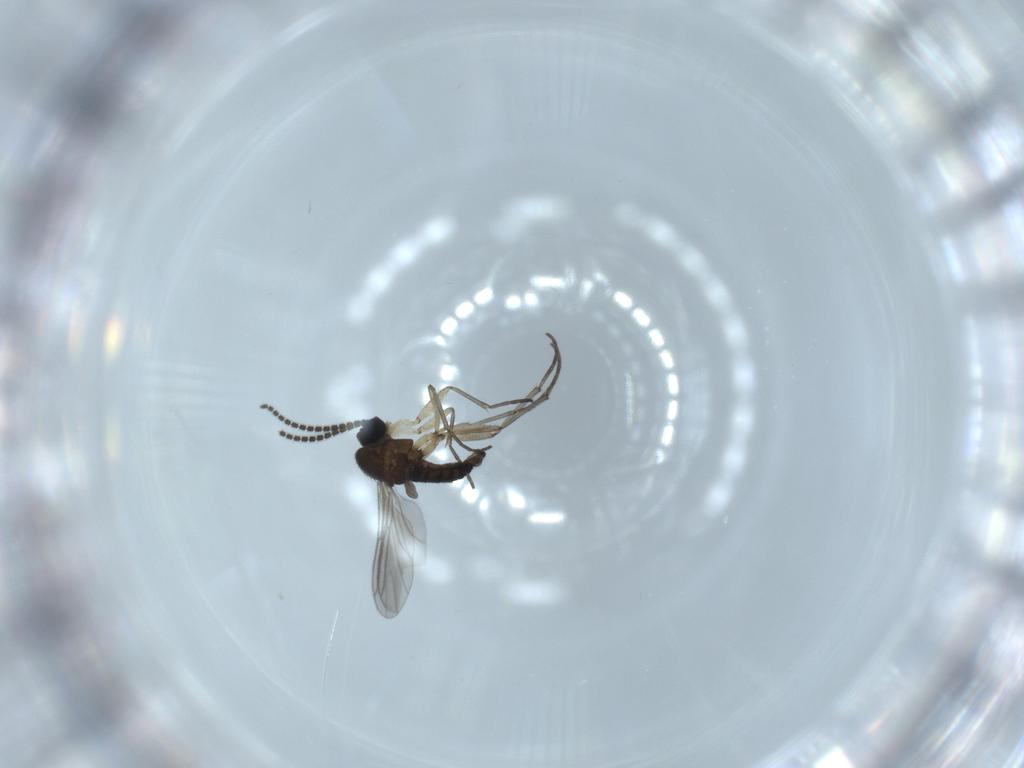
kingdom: Animalia
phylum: Arthropoda
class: Insecta
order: Diptera
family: Sciaridae
